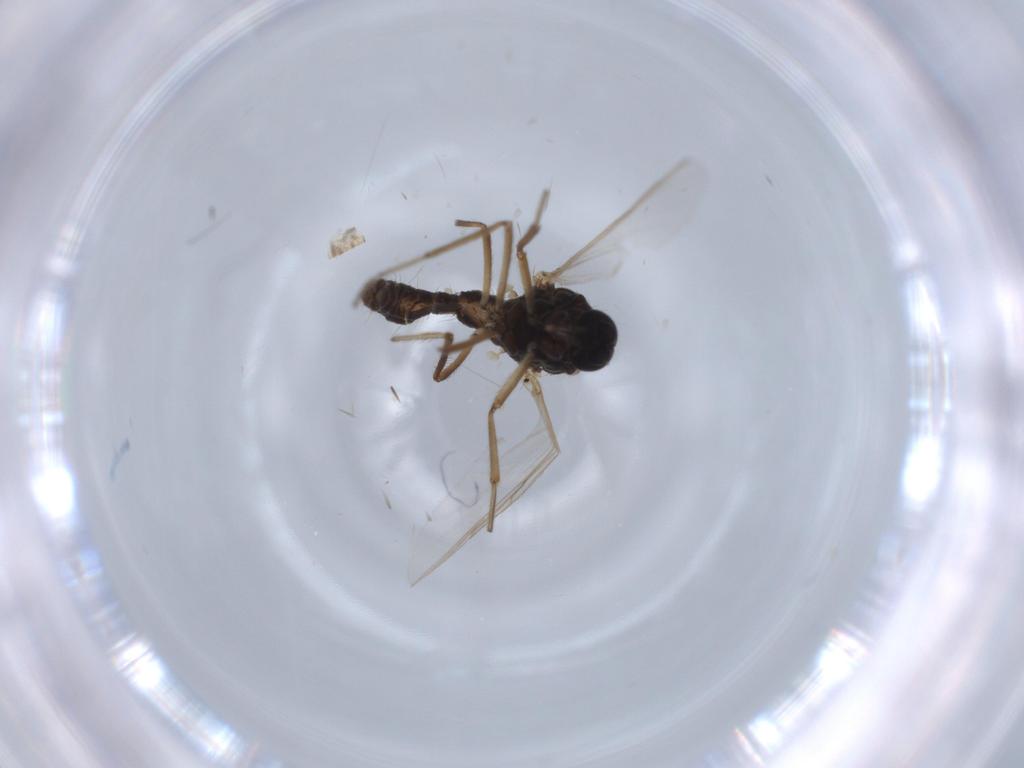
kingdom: Animalia
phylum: Arthropoda
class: Insecta
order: Diptera
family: Ceratopogonidae
